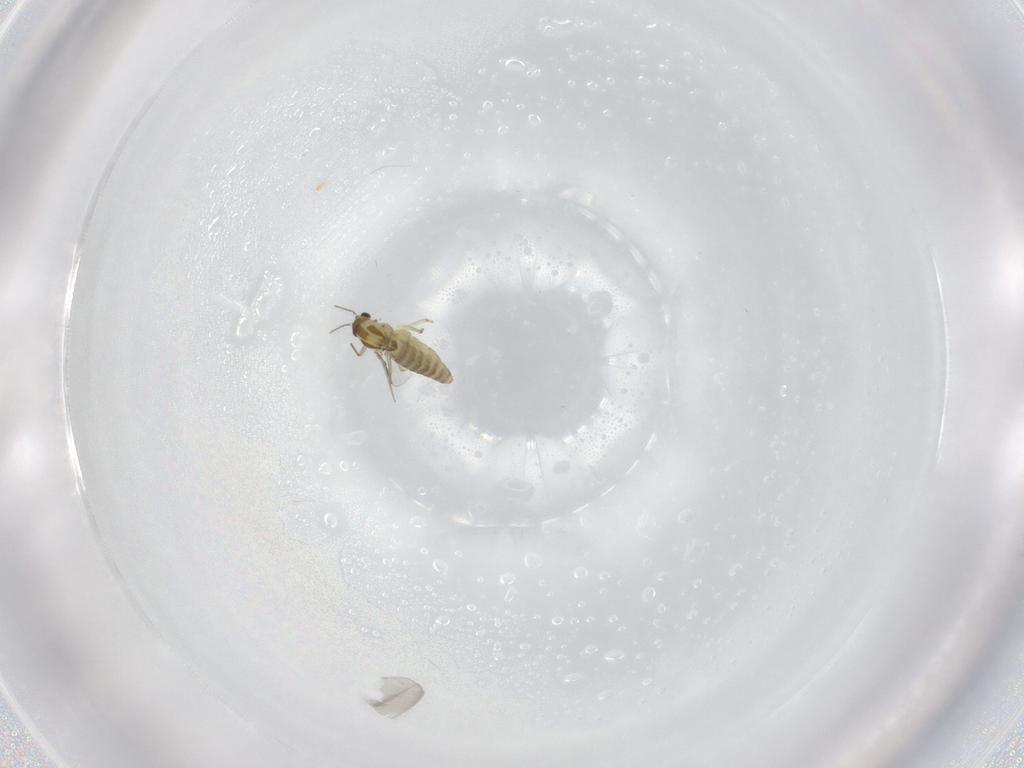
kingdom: Animalia
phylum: Arthropoda
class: Insecta
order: Diptera
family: Chironomidae
